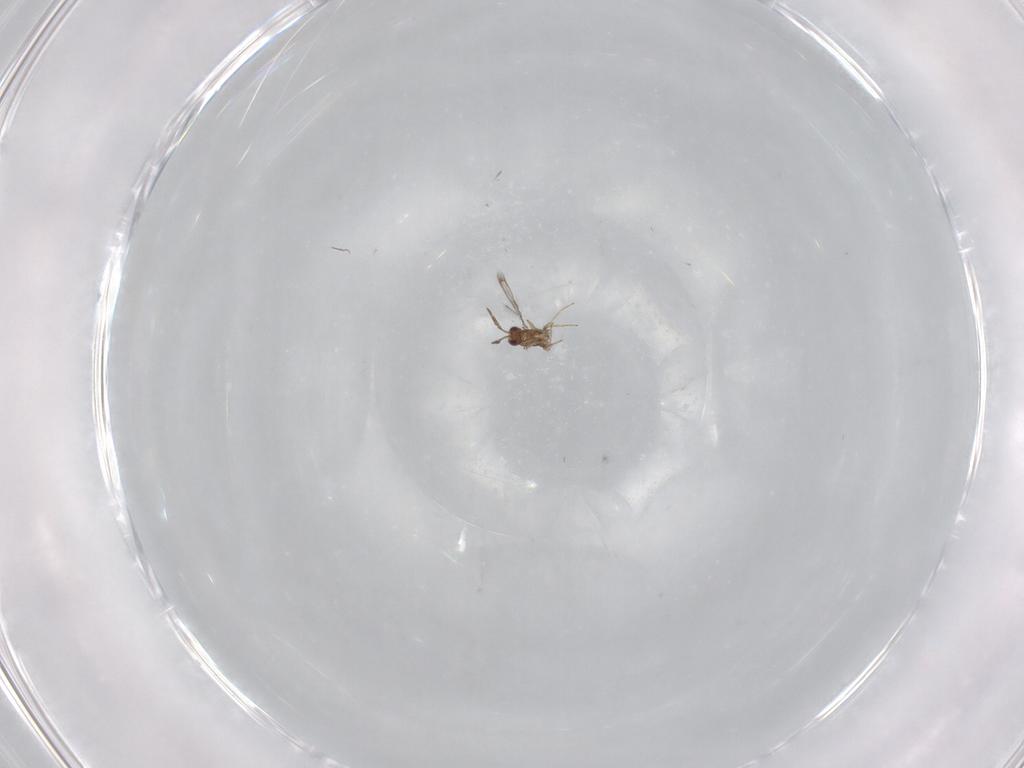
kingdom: Animalia
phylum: Arthropoda
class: Insecta
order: Hymenoptera
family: Trichogrammatidae
